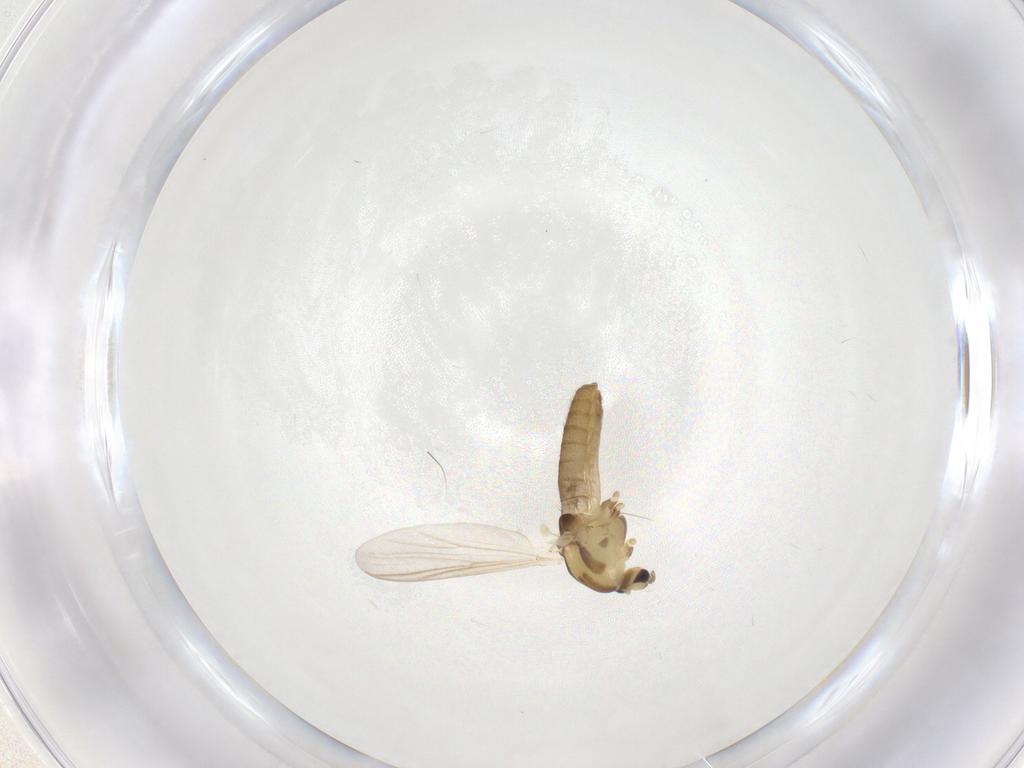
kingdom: Animalia
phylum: Arthropoda
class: Insecta
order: Diptera
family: Chironomidae
